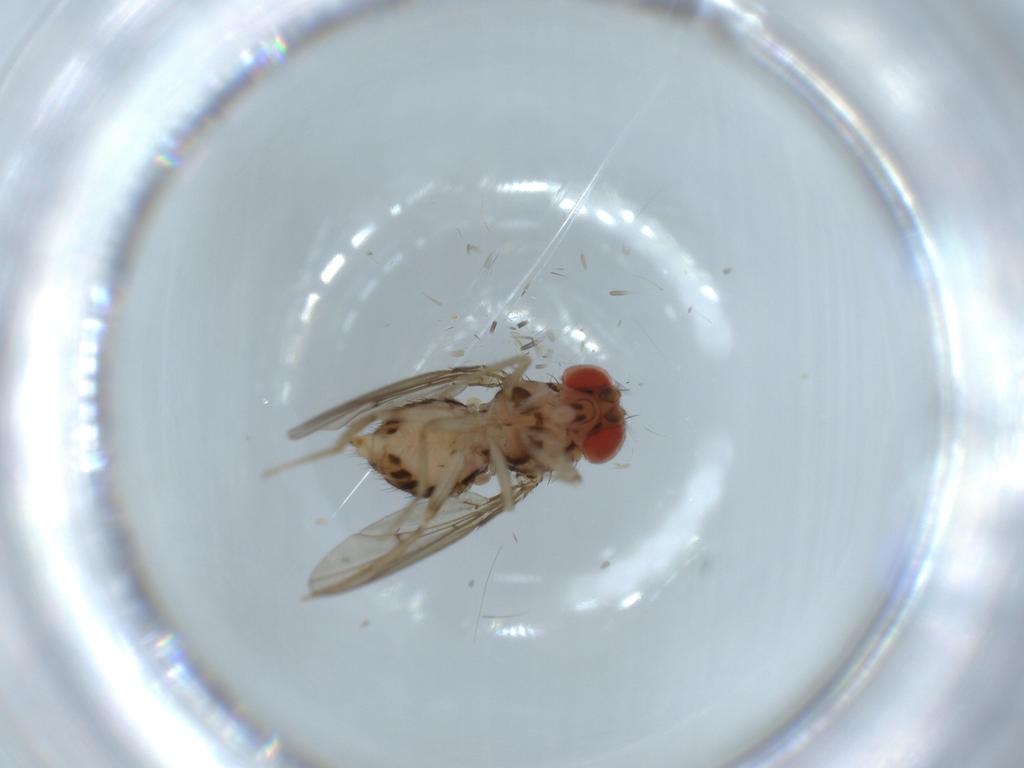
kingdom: Animalia
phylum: Arthropoda
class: Insecta
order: Diptera
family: Drosophilidae
